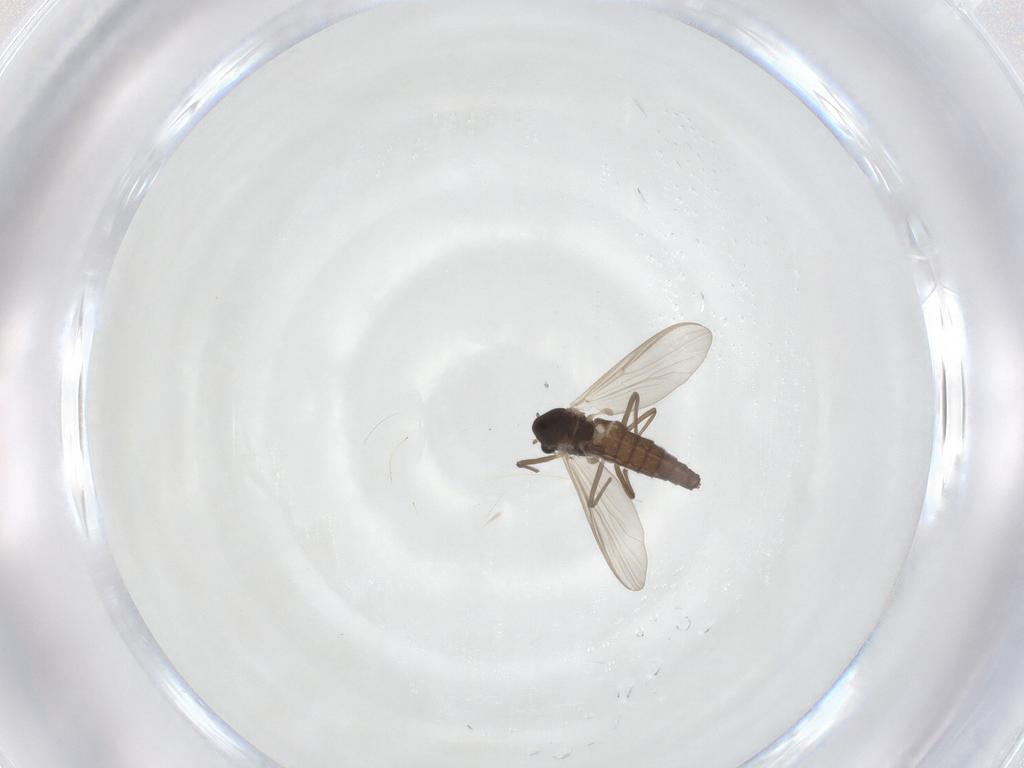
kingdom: Animalia
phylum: Arthropoda
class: Insecta
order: Diptera
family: Chironomidae
